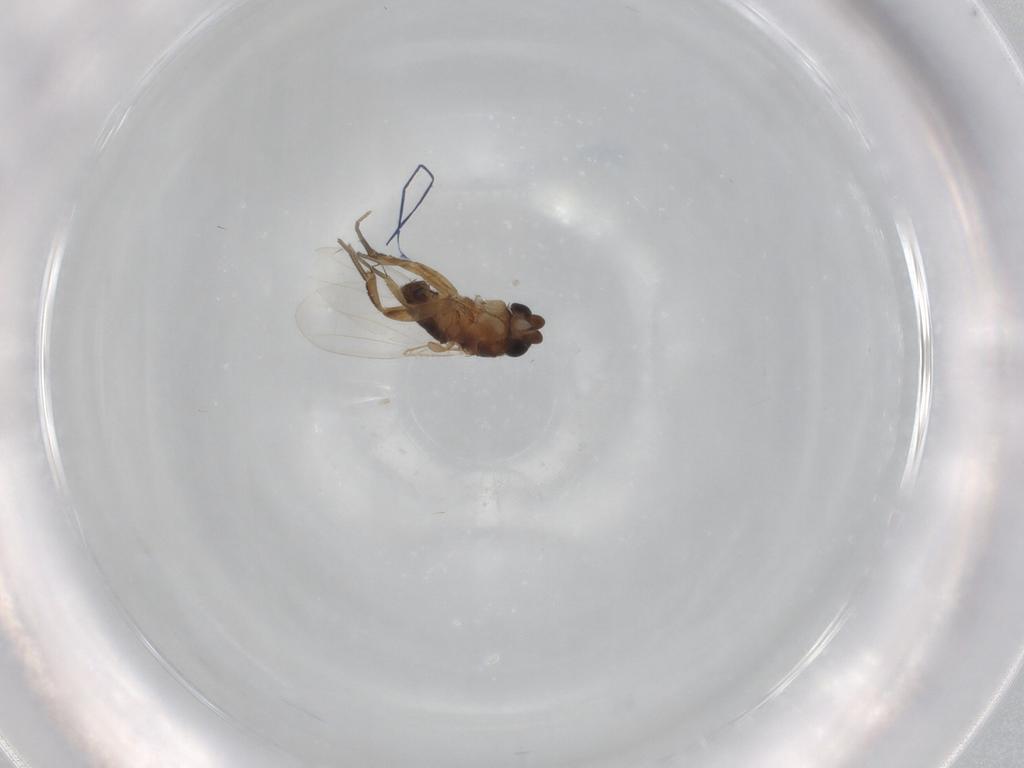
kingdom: Animalia
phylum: Arthropoda
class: Insecta
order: Diptera
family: Phoridae
